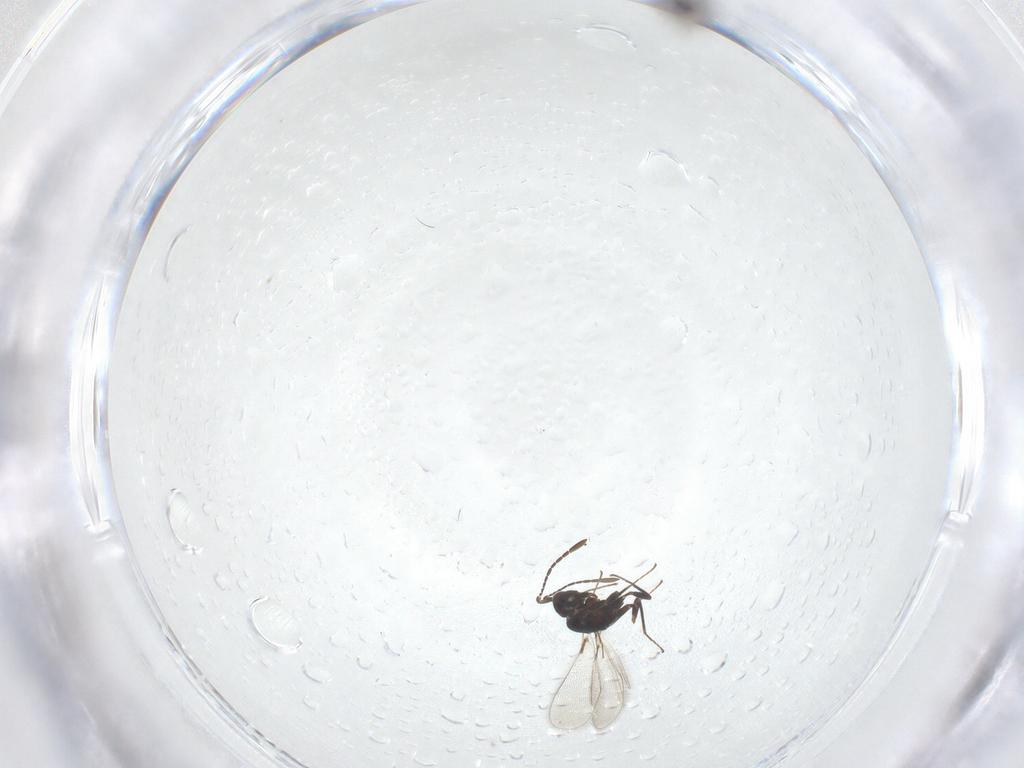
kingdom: Animalia
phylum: Arthropoda
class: Insecta
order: Hymenoptera
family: Mymaridae
